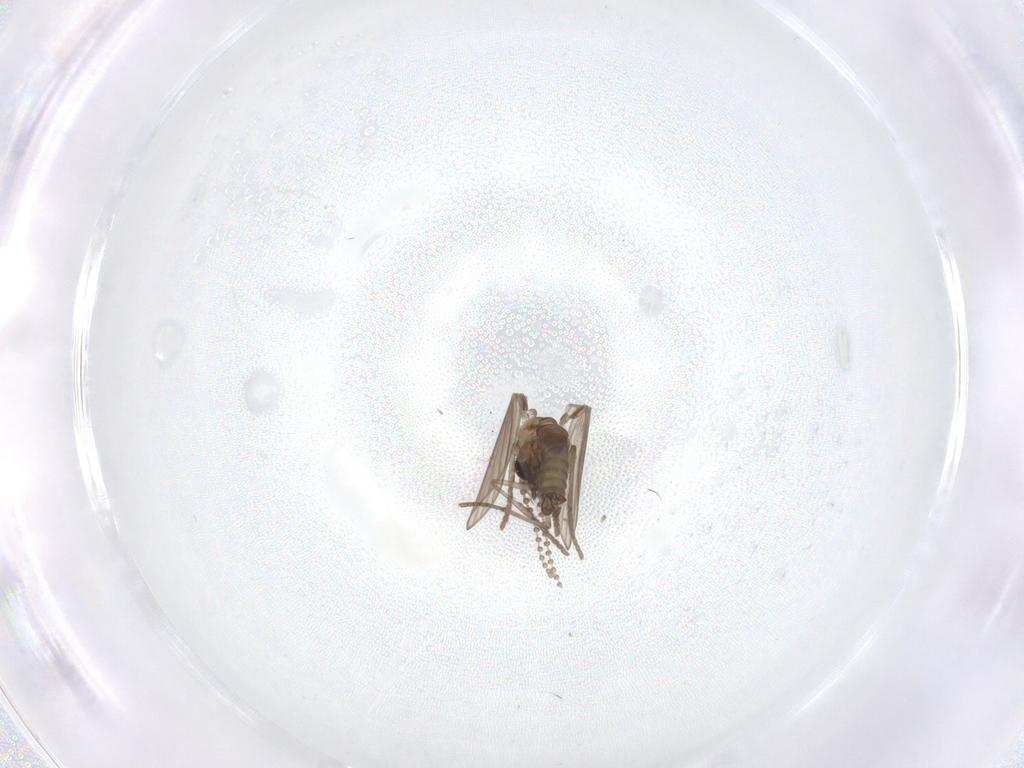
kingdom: Animalia
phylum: Arthropoda
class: Insecta
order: Diptera
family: Psychodidae
